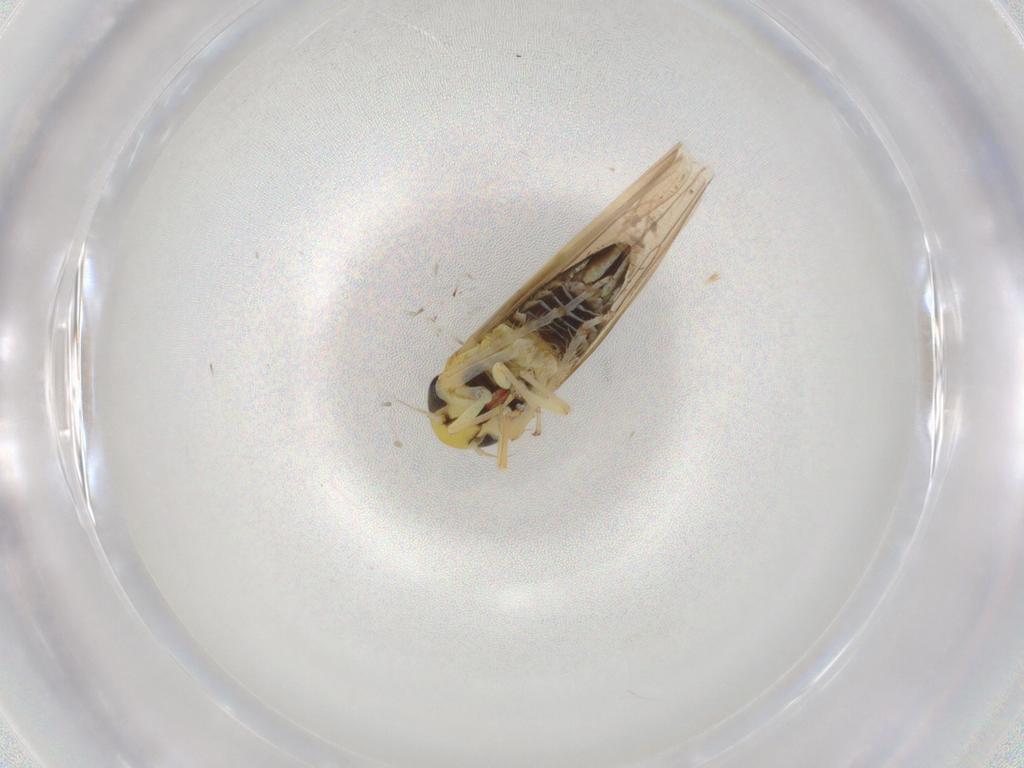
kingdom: Animalia
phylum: Arthropoda
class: Insecta
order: Hemiptera
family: Cicadellidae
